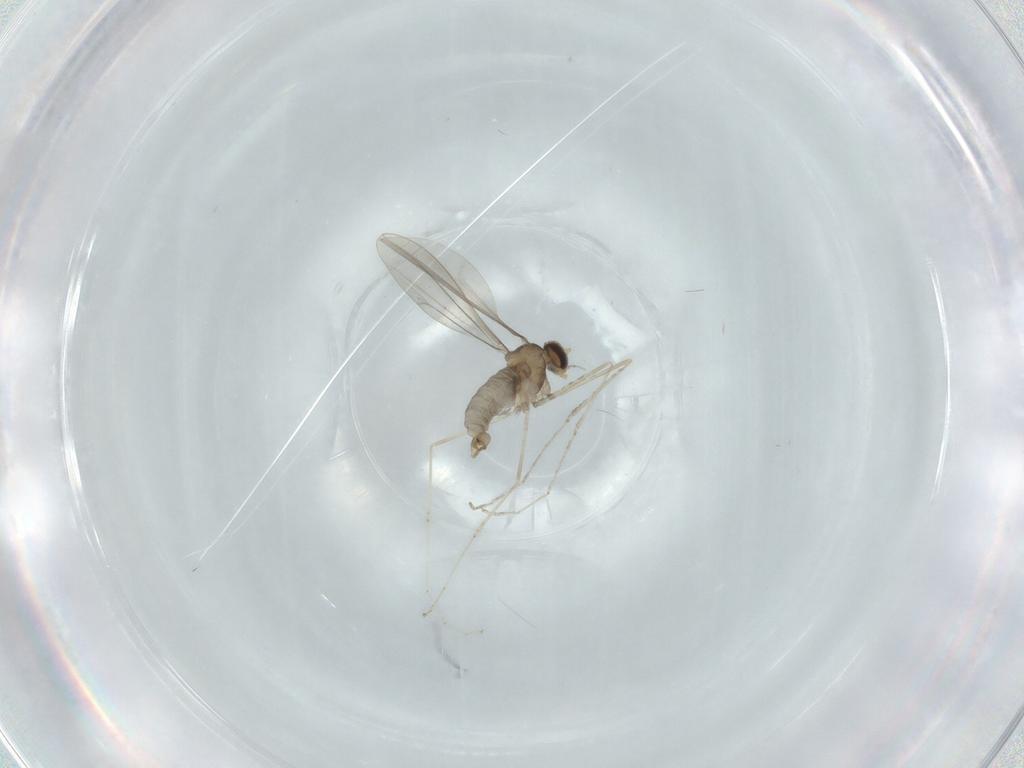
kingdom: Animalia
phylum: Arthropoda
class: Insecta
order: Diptera
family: Cecidomyiidae
